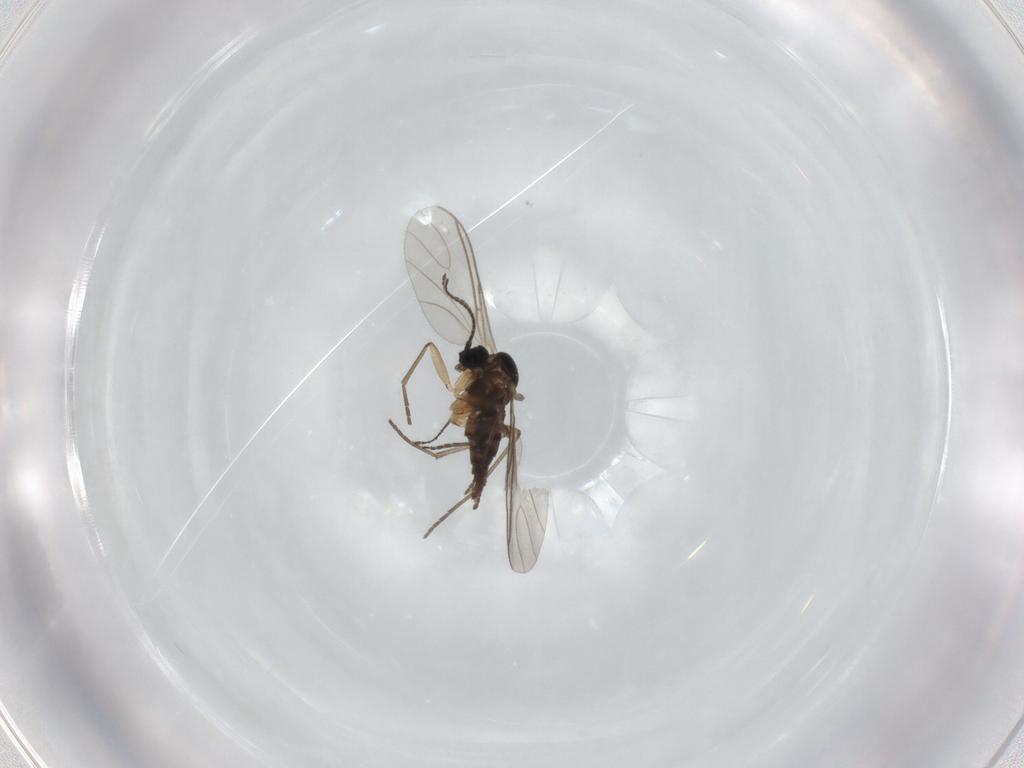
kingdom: Animalia
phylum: Arthropoda
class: Insecta
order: Diptera
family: Sciaridae
